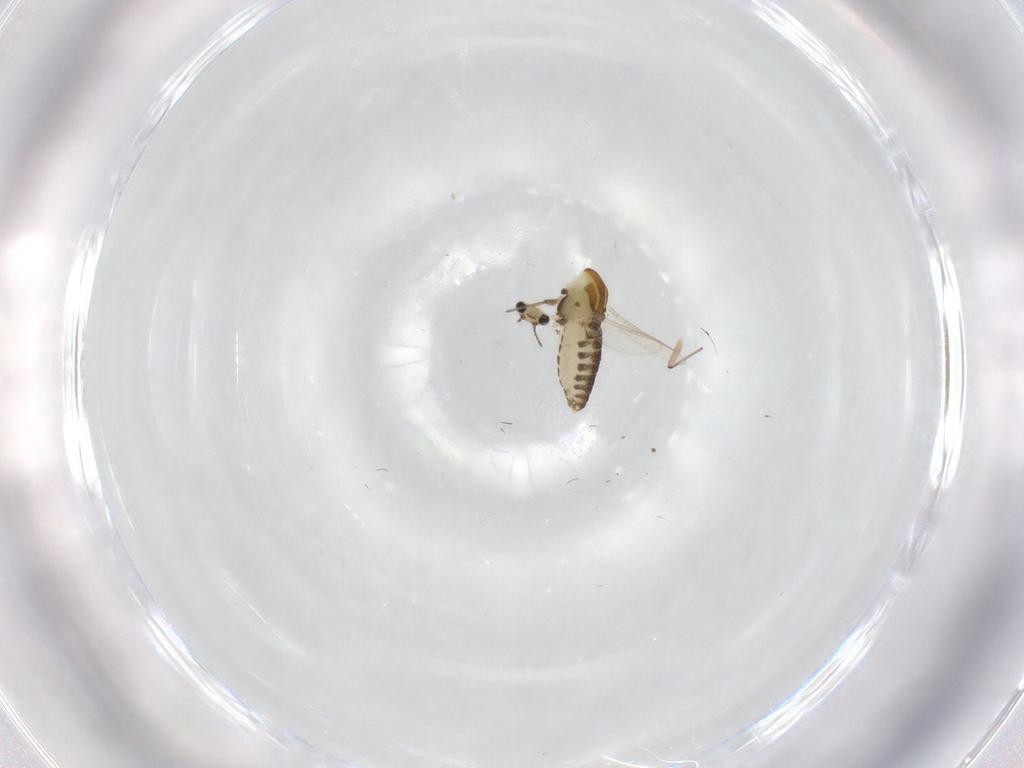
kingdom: Animalia
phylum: Arthropoda
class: Insecta
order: Diptera
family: Chironomidae
